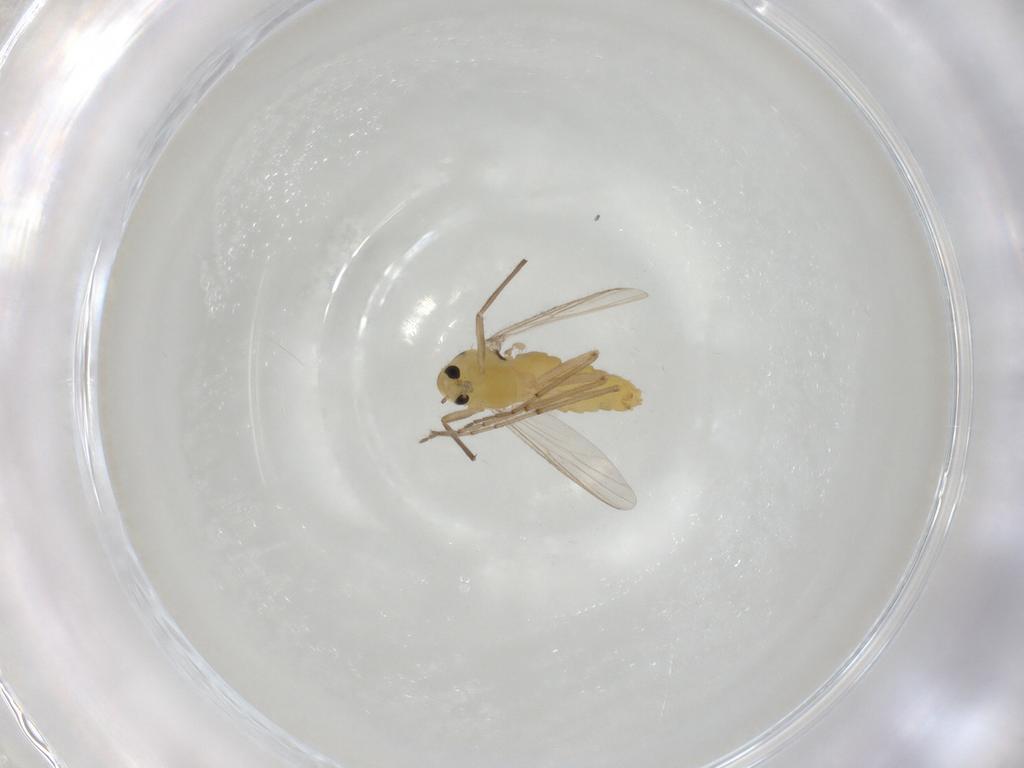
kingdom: Animalia
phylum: Arthropoda
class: Insecta
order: Diptera
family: Chironomidae
